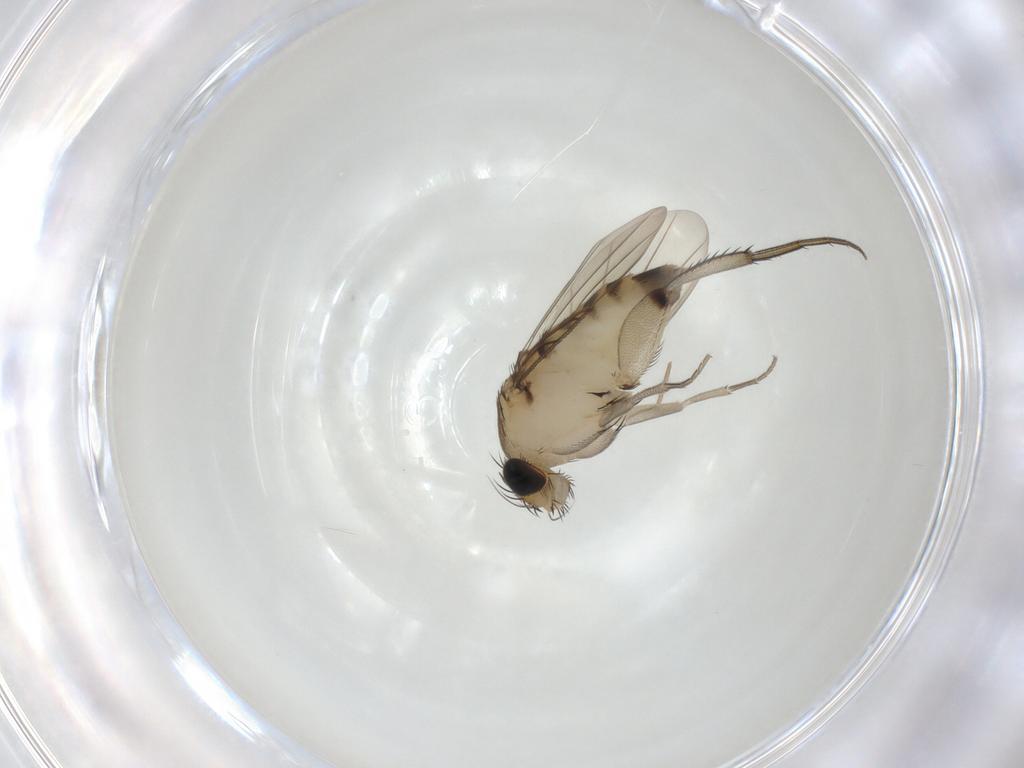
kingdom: Animalia
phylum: Arthropoda
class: Insecta
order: Diptera
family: Phoridae
